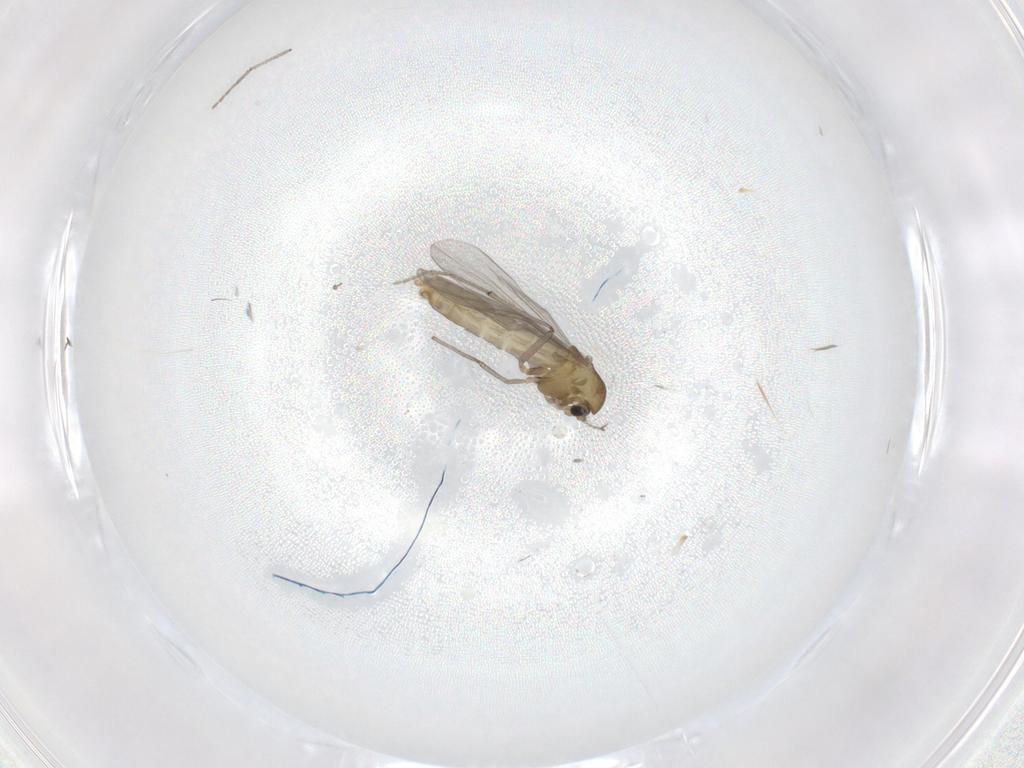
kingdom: Animalia
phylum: Arthropoda
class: Insecta
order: Diptera
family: Chironomidae
